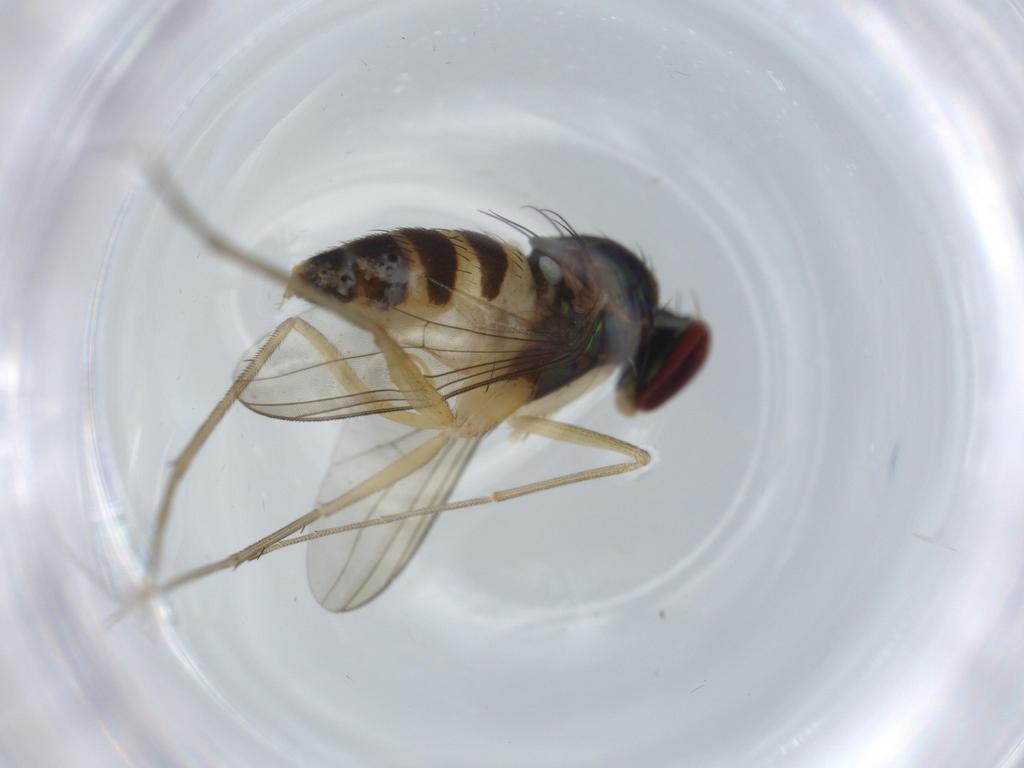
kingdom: Animalia
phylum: Arthropoda
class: Insecta
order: Diptera
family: Dolichopodidae
